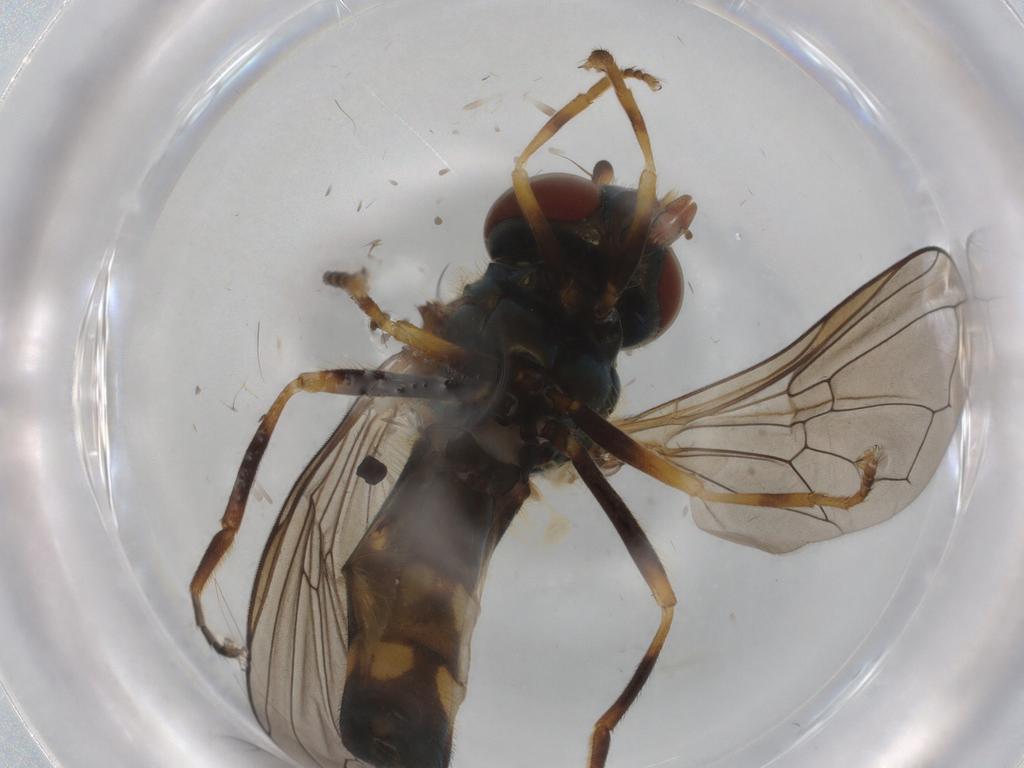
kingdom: Animalia
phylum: Arthropoda
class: Insecta
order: Diptera
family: Syrphidae
